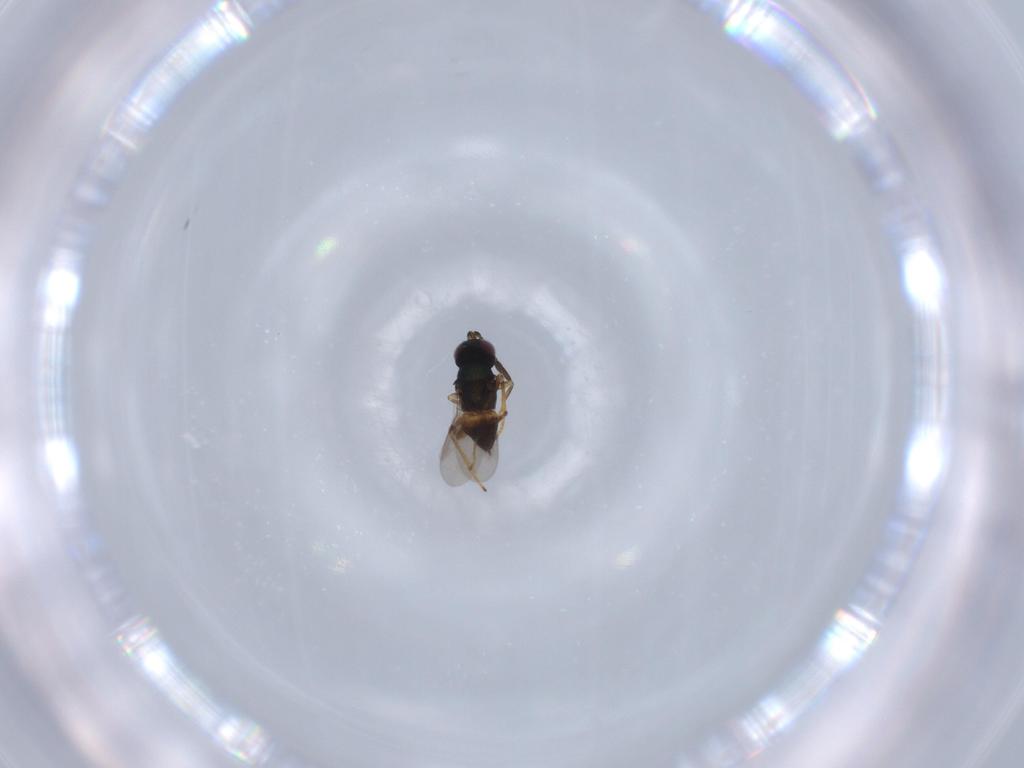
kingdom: Animalia
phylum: Arthropoda
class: Insecta
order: Hymenoptera
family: Encyrtidae
